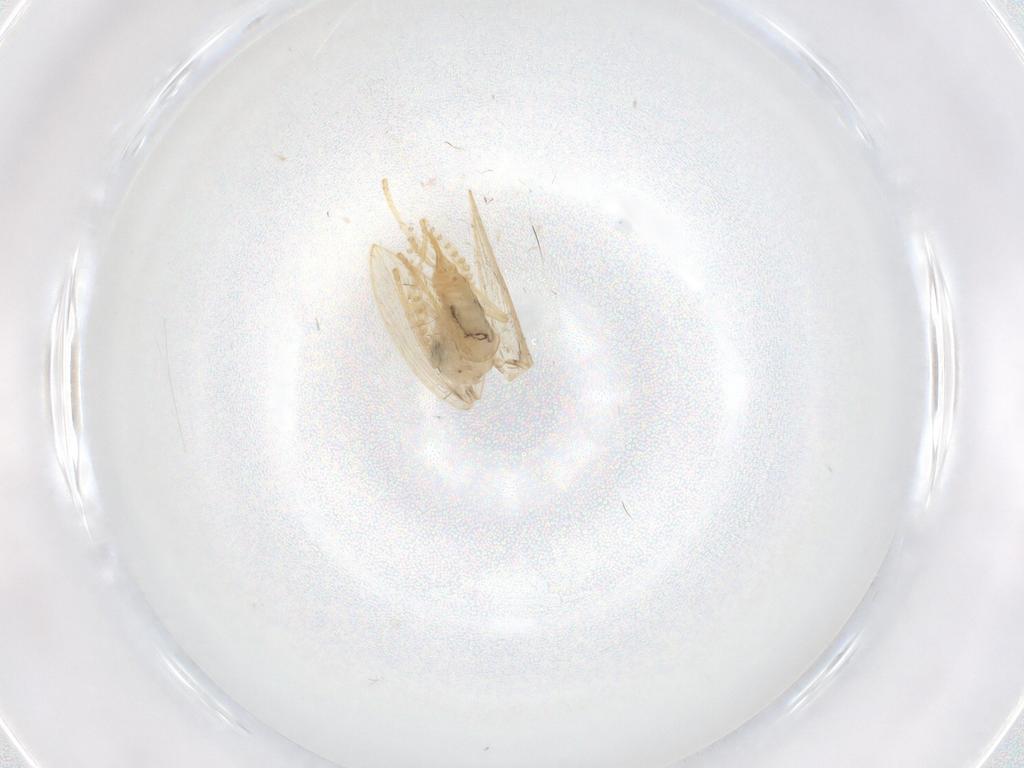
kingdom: Animalia
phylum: Arthropoda
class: Insecta
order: Diptera
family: Psychodidae
